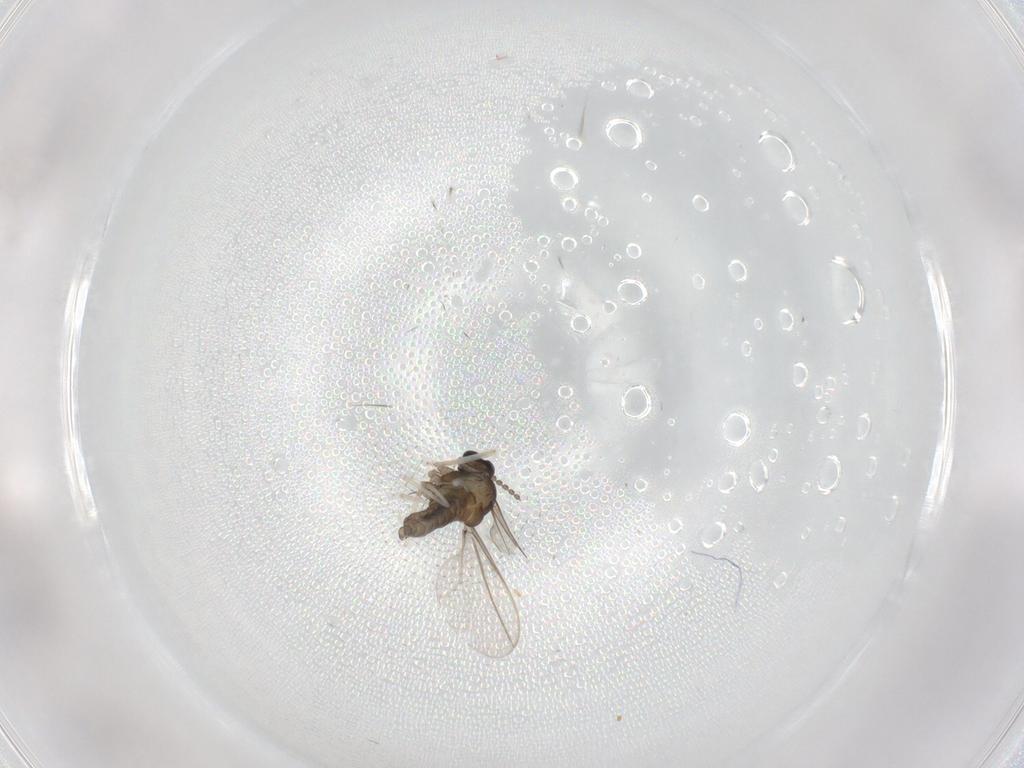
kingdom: Animalia
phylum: Arthropoda
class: Insecta
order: Diptera
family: Cecidomyiidae
